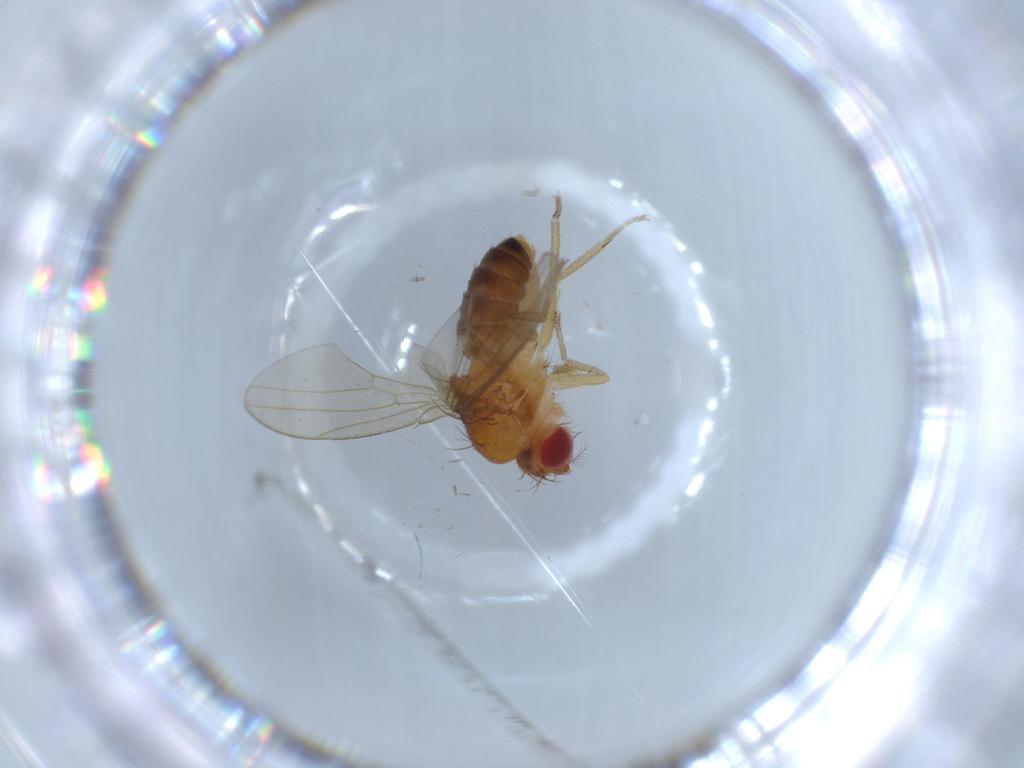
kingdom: Animalia
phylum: Arthropoda
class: Insecta
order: Diptera
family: Drosophilidae
